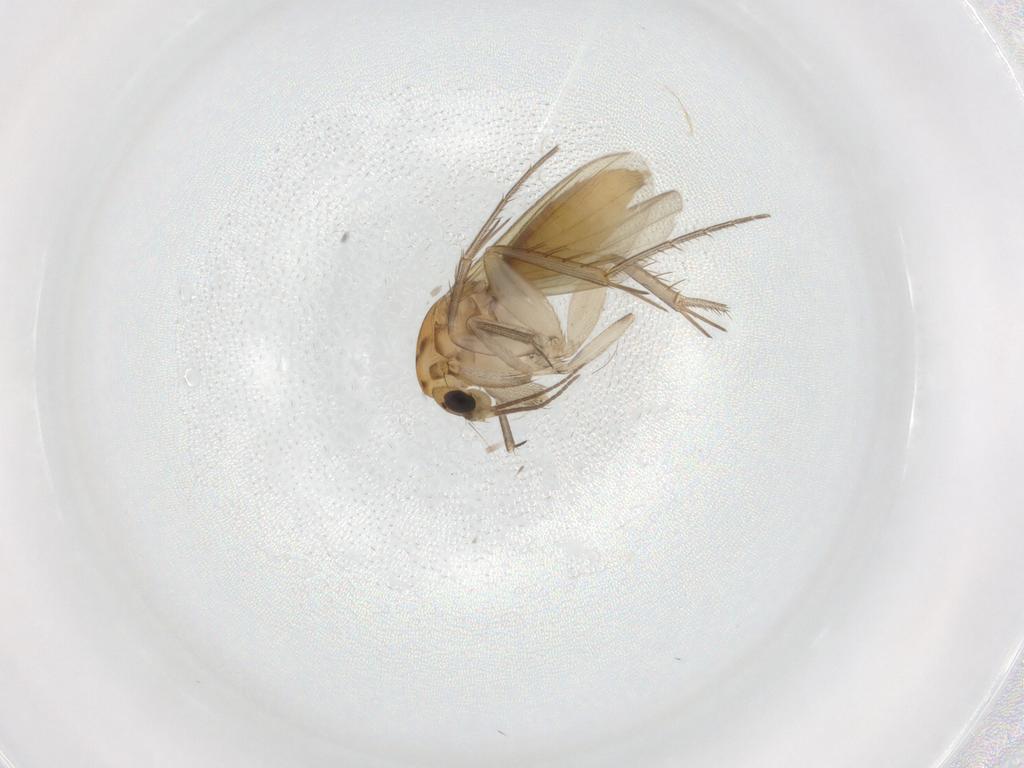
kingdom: Animalia
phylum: Arthropoda
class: Insecta
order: Diptera
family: Mycetophilidae
